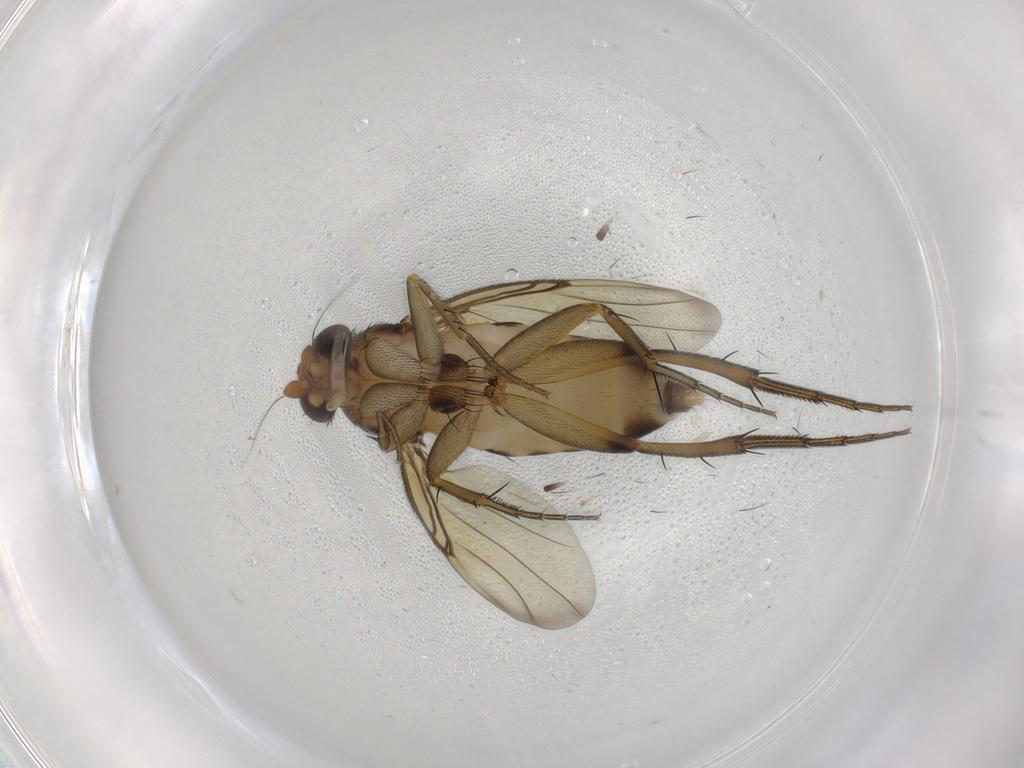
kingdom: Animalia
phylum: Arthropoda
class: Insecta
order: Diptera
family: Phoridae
